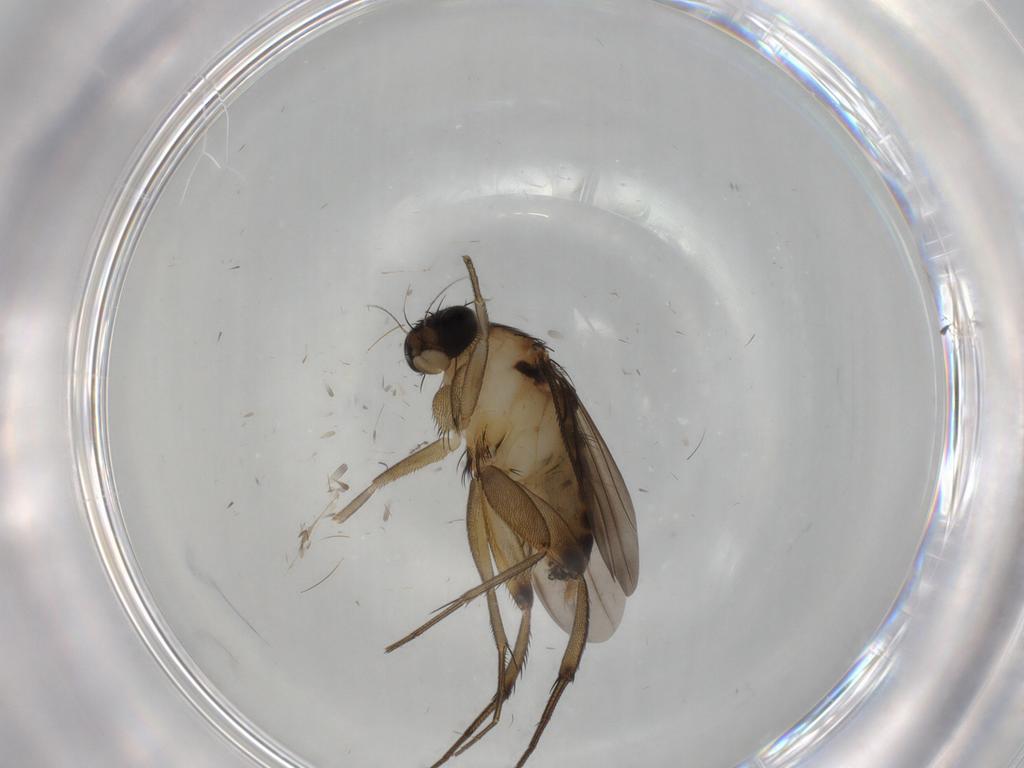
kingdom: Animalia
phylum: Arthropoda
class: Insecta
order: Diptera
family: Phoridae
